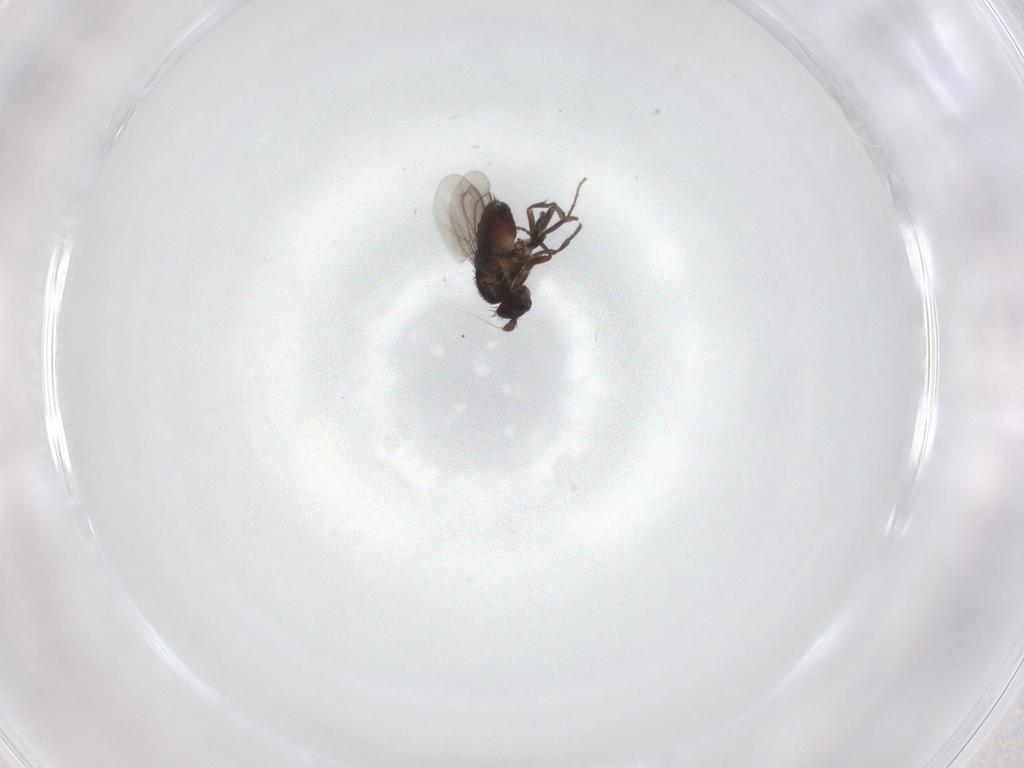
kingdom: Animalia
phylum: Arthropoda
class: Insecta
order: Diptera
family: Sphaeroceridae
